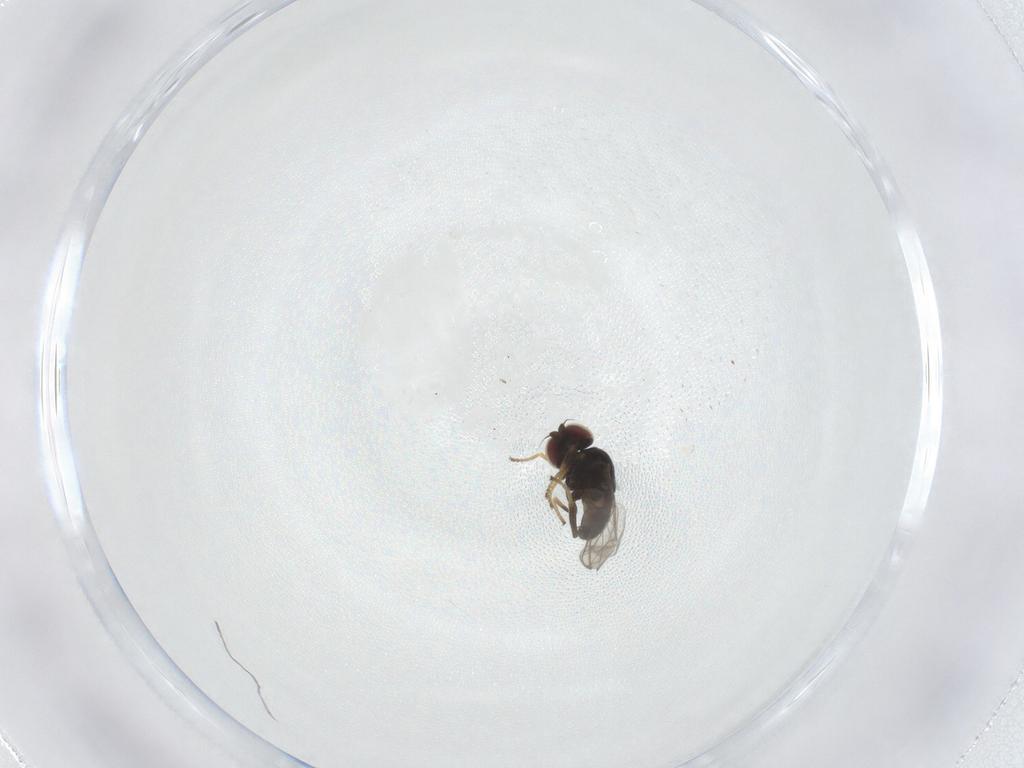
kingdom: Animalia
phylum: Arthropoda
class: Insecta
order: Diptera
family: Chloropidae
